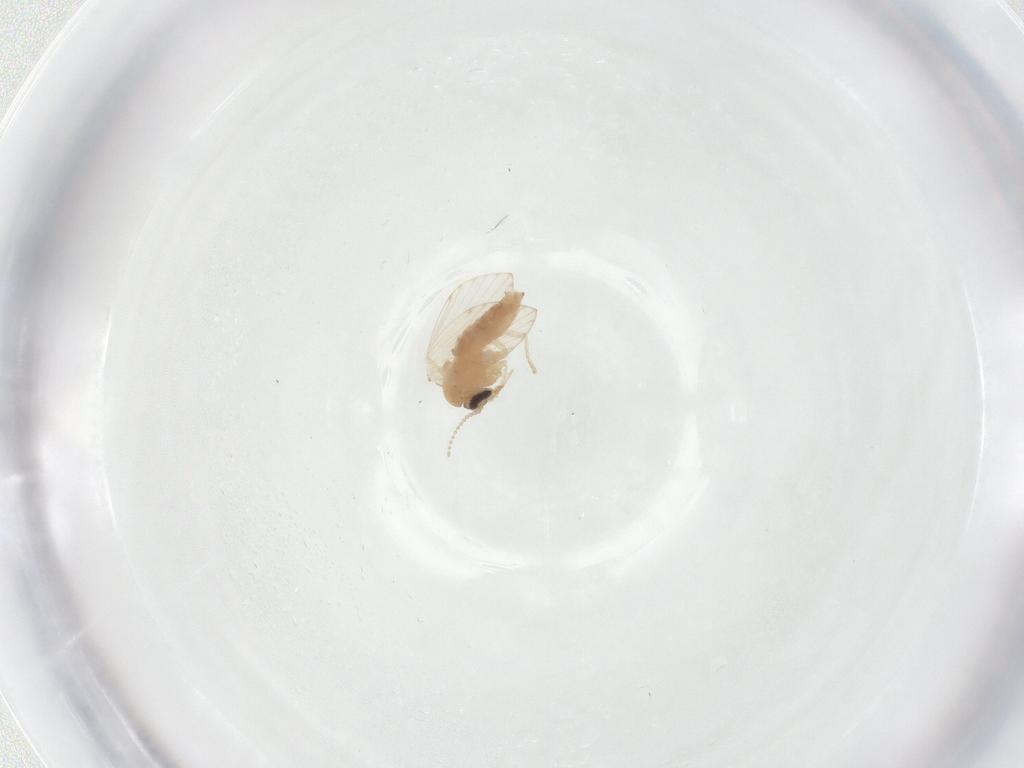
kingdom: Animalia
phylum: Arthropoda
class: Insecta
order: Diptera
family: Psychodidae
